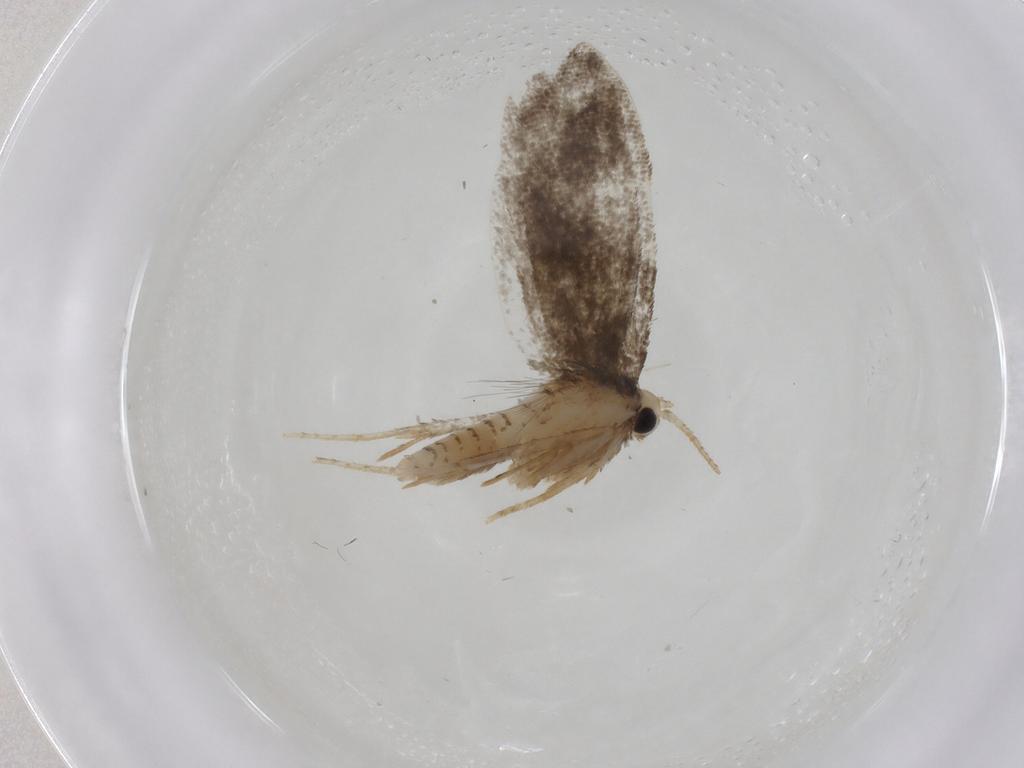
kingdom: Animalia
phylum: Arthropoda
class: Insecta
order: Lepidoptera
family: Psychidae
